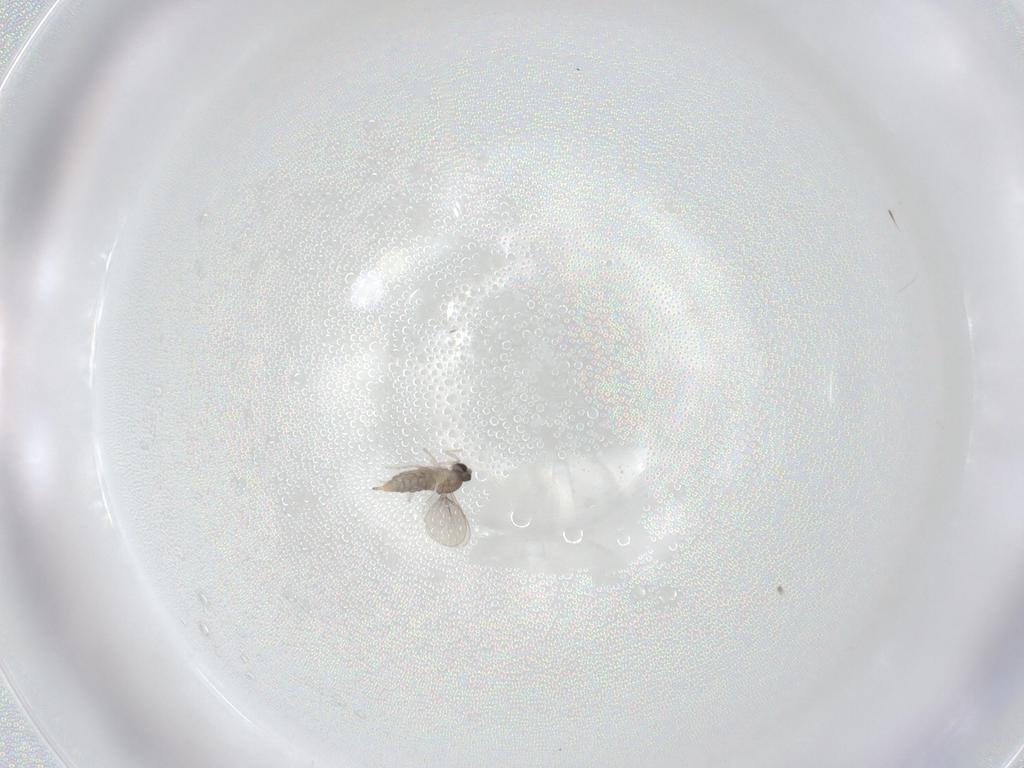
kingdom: Animalia
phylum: Arthropoda
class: Insecta
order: Diptera
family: Cecidomyiidae
